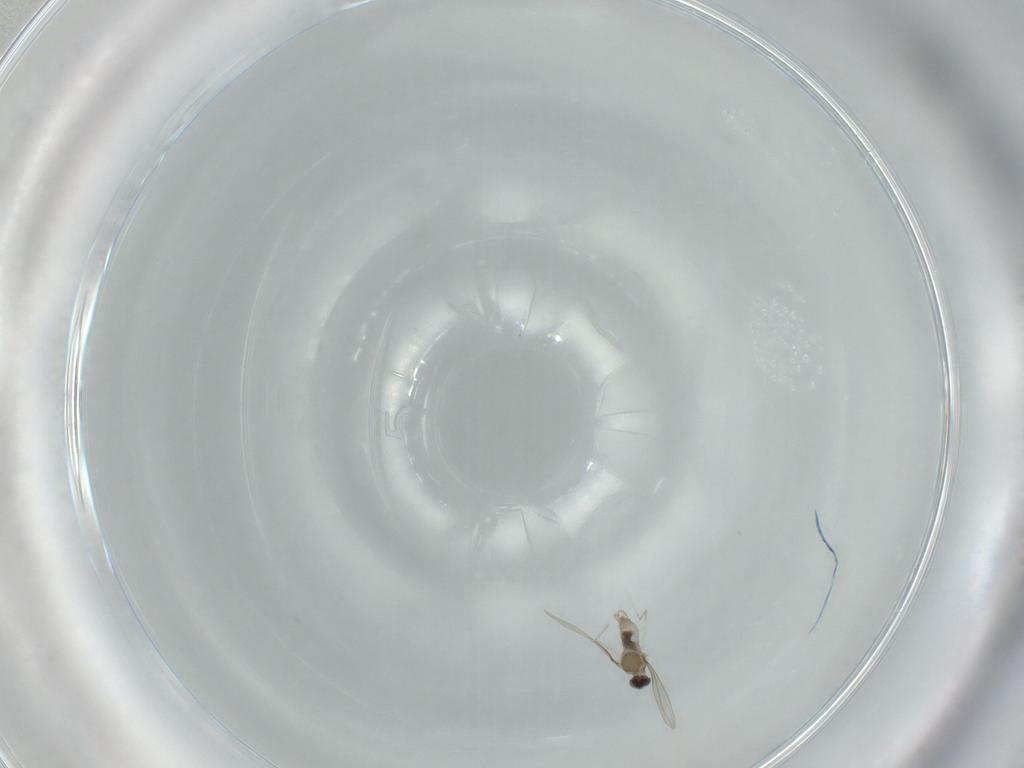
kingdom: Animalia
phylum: Arthropoda
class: Insecta
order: Diptera
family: Cecidomyiidae
